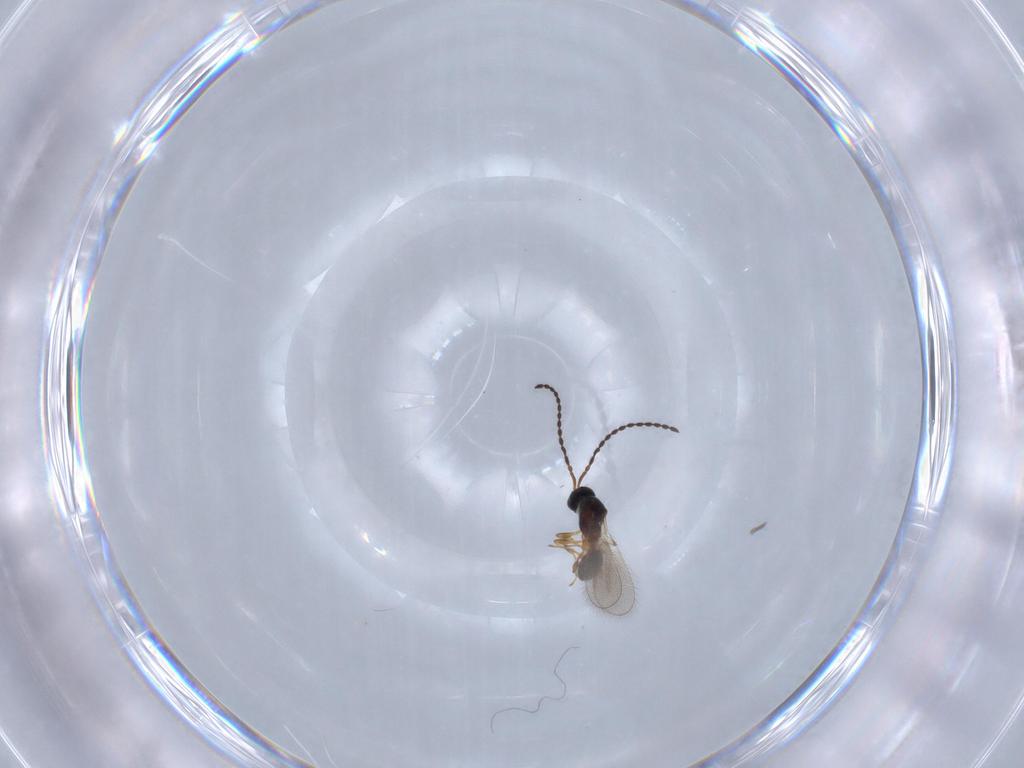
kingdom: Animalia
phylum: Arthropoda
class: Insecta
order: Hymenoptera
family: Diapriidae
